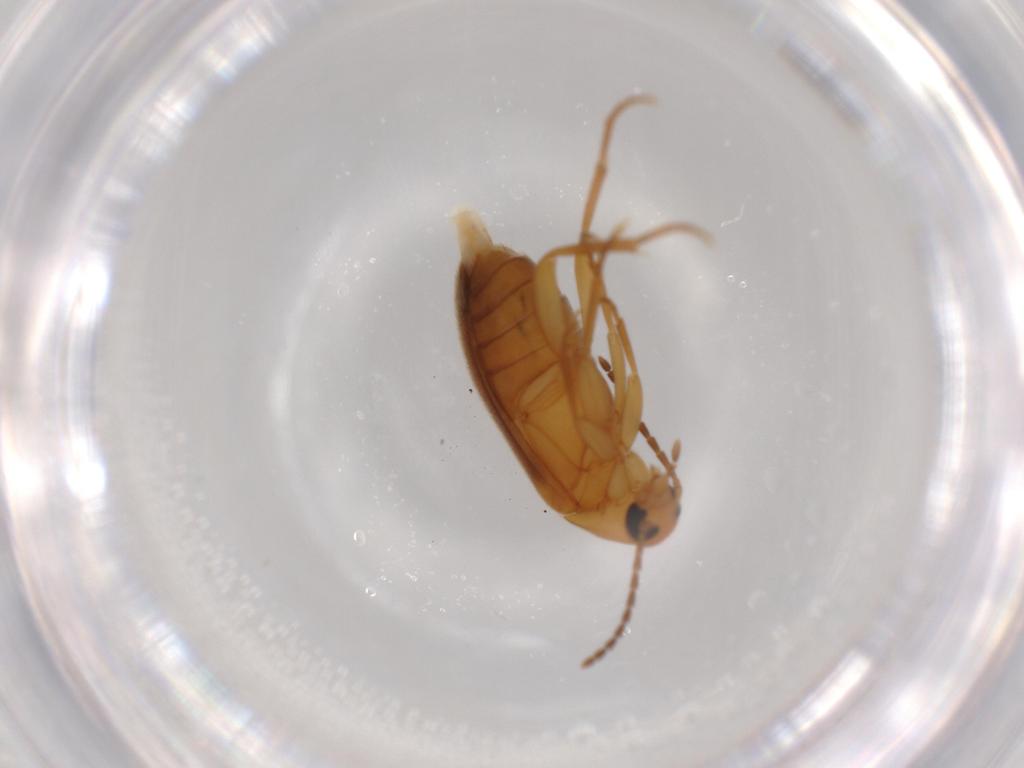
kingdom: Animalia
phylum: Arthropoda
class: Insecta
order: Coleoptera
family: Scraptiidae
